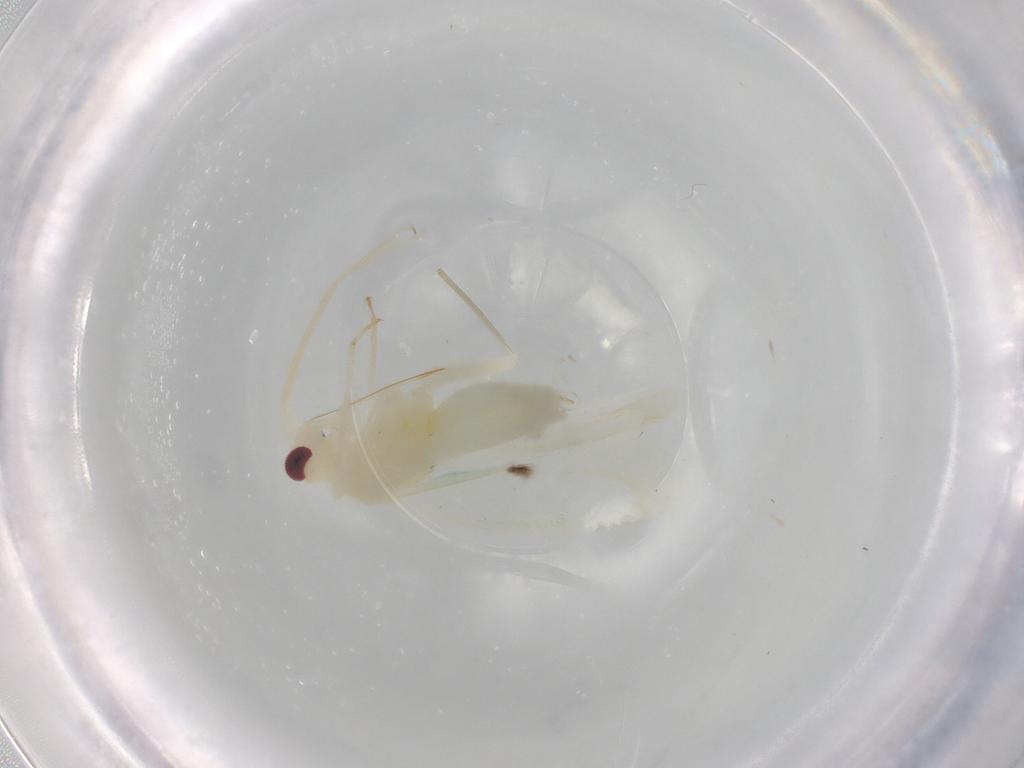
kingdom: Animalia
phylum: Arthropoda
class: Insecta
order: Hemiptera
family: Miridae
